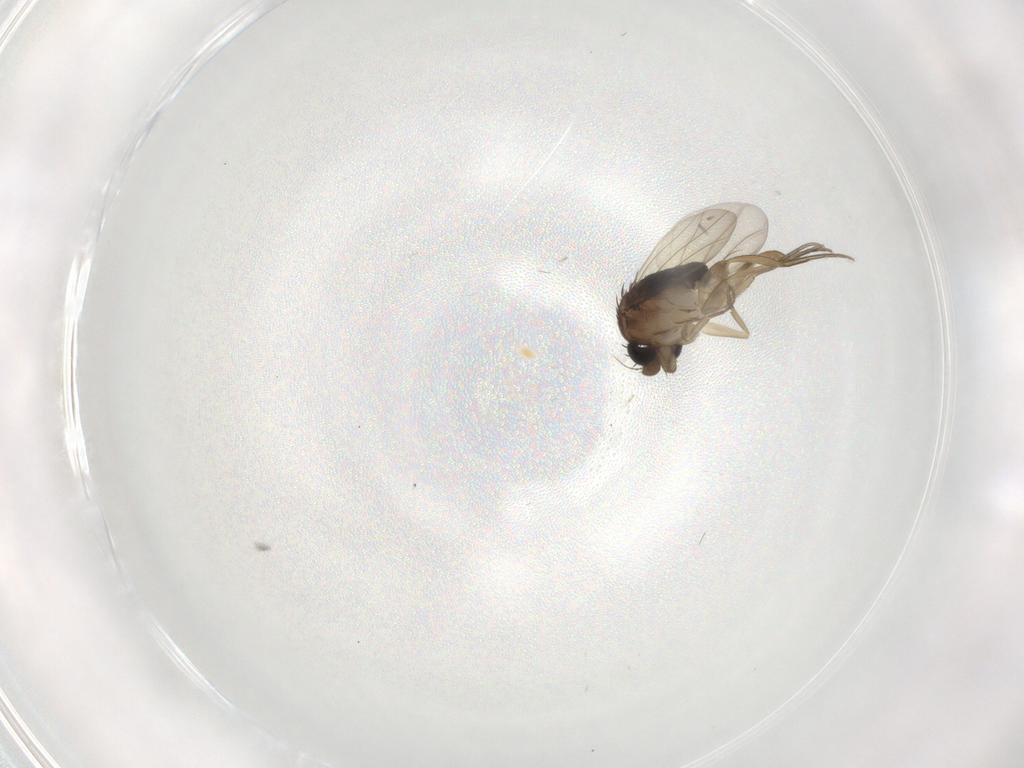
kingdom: Animalia
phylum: Arthropoda
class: Insecta
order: Diptera
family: Phoridae
